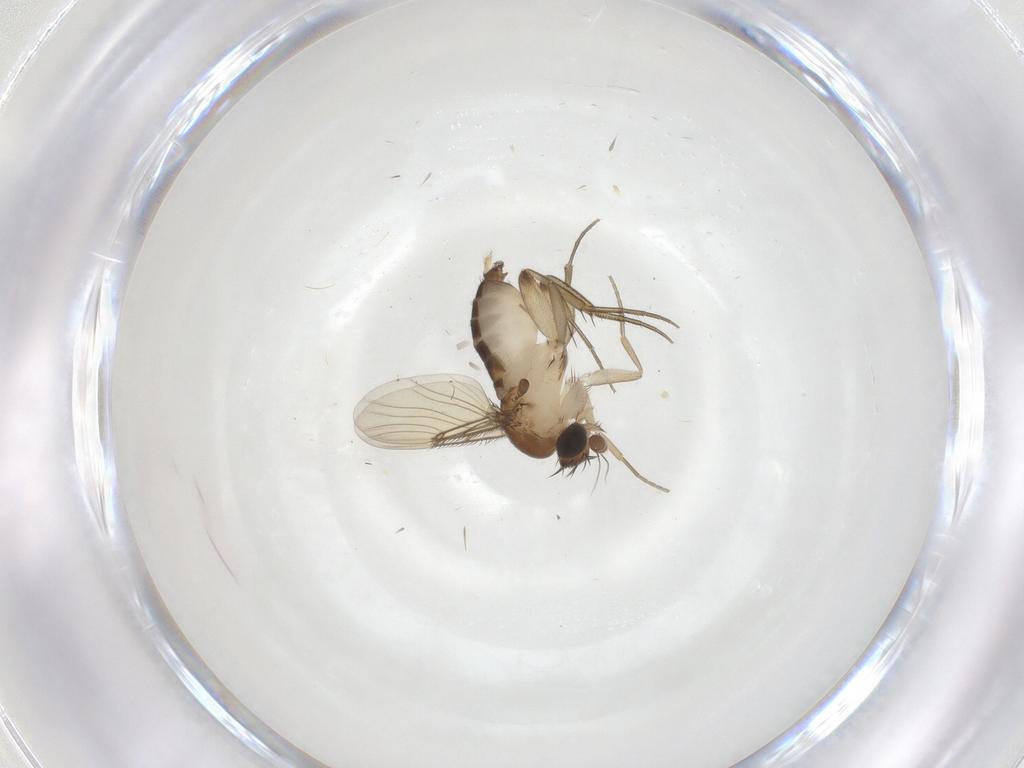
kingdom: Animalia
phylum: Arthropoda
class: Insecta
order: Diptera
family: Phoridae
